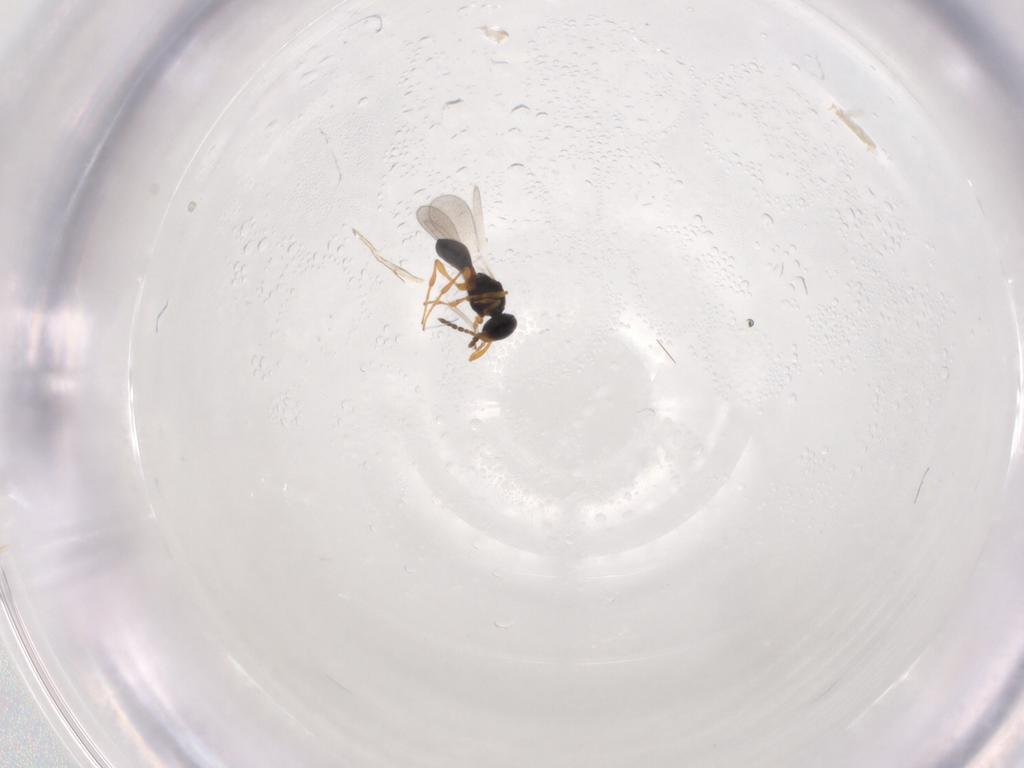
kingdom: Animalia
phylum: Arthropoda
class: Insecta
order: Hymenoptera
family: Platygastridae
